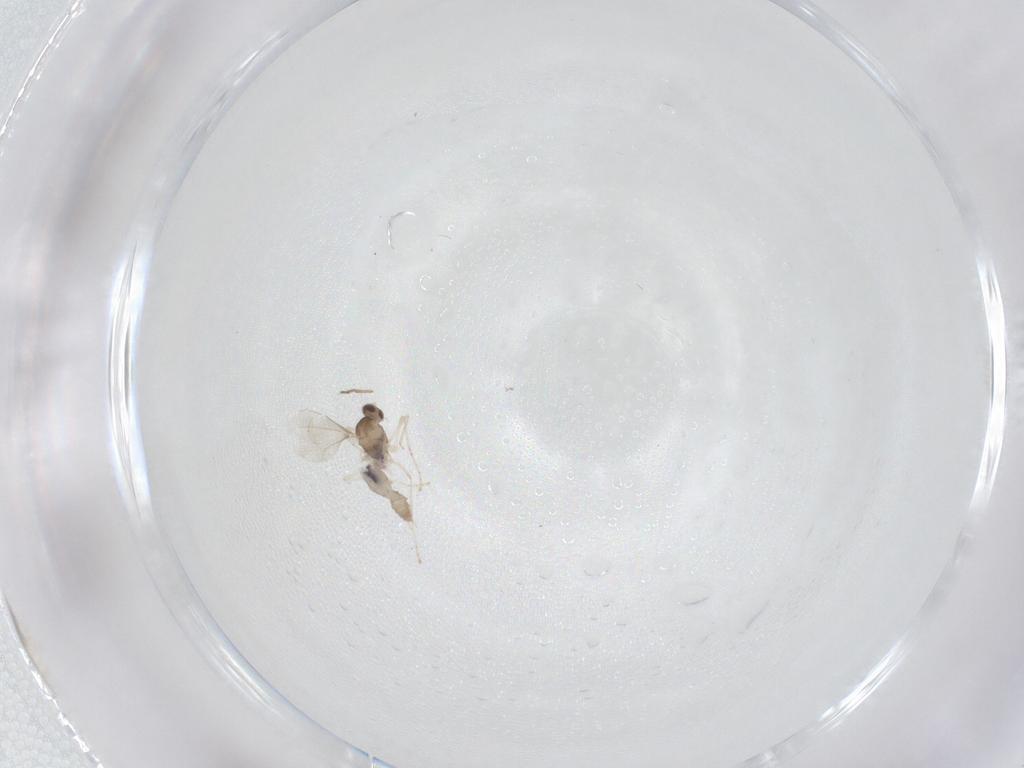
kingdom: Animalia
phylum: Arthropoda
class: Insecta
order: Diptera
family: Cecidomyiidae
